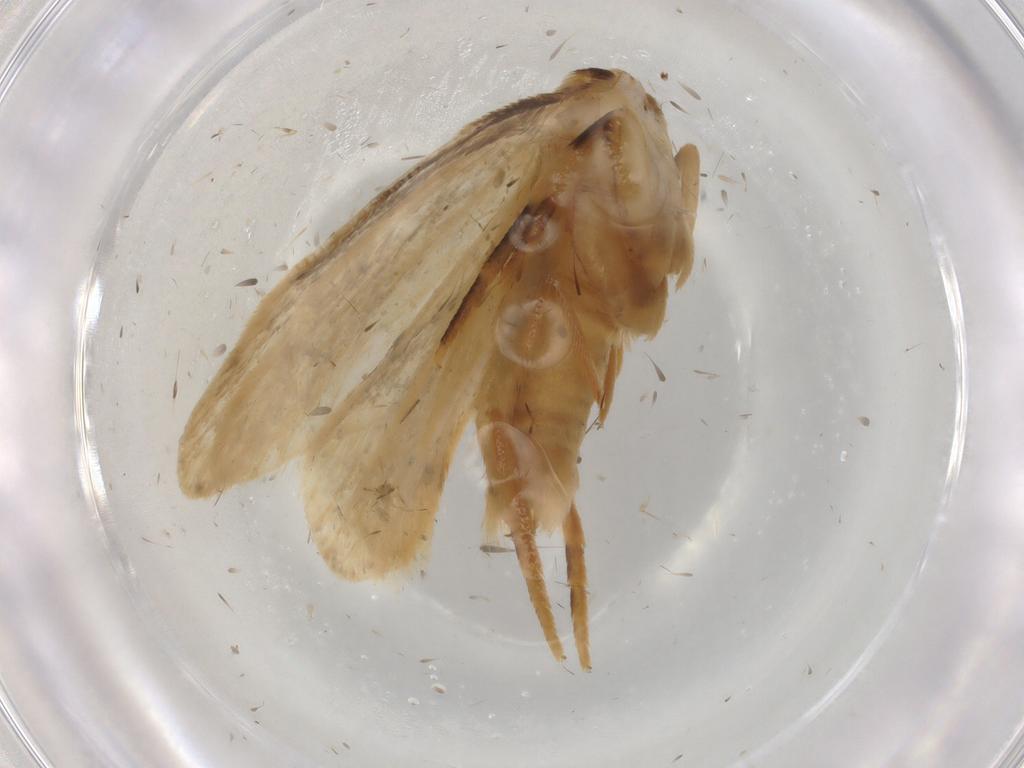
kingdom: Animalia
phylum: Arthropoda
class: Insecta
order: Lepidoptera
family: Tineidae
